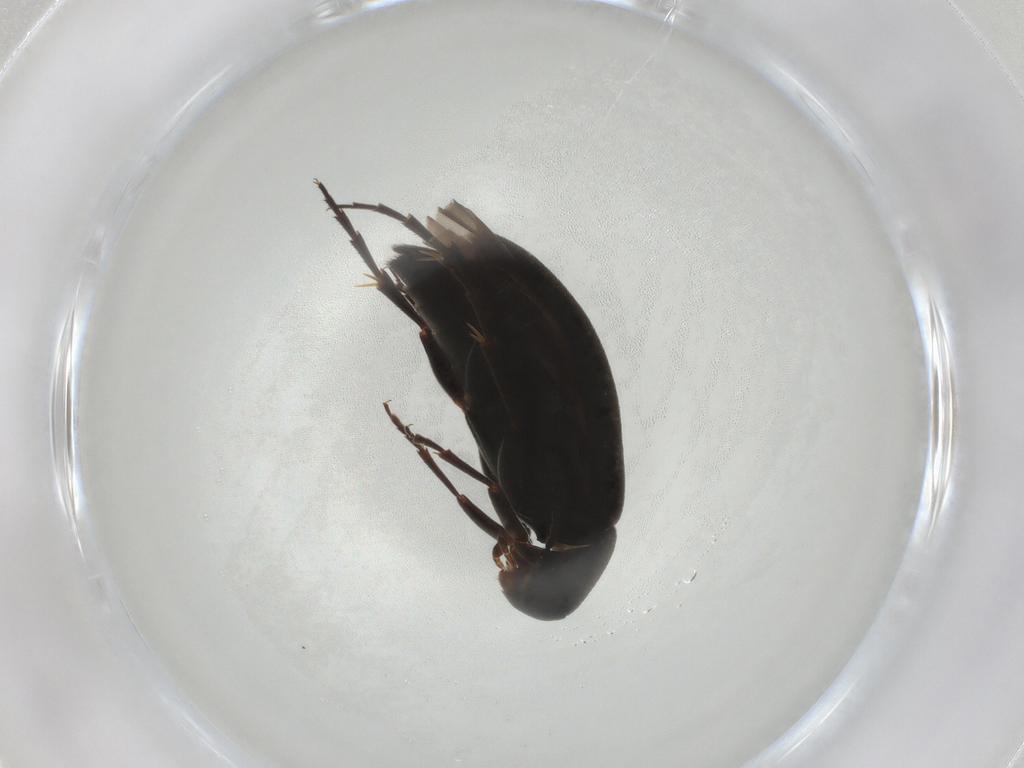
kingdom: Animalia
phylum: Arthropoda
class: Insecta
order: Coleoptera
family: Scraptiidae
